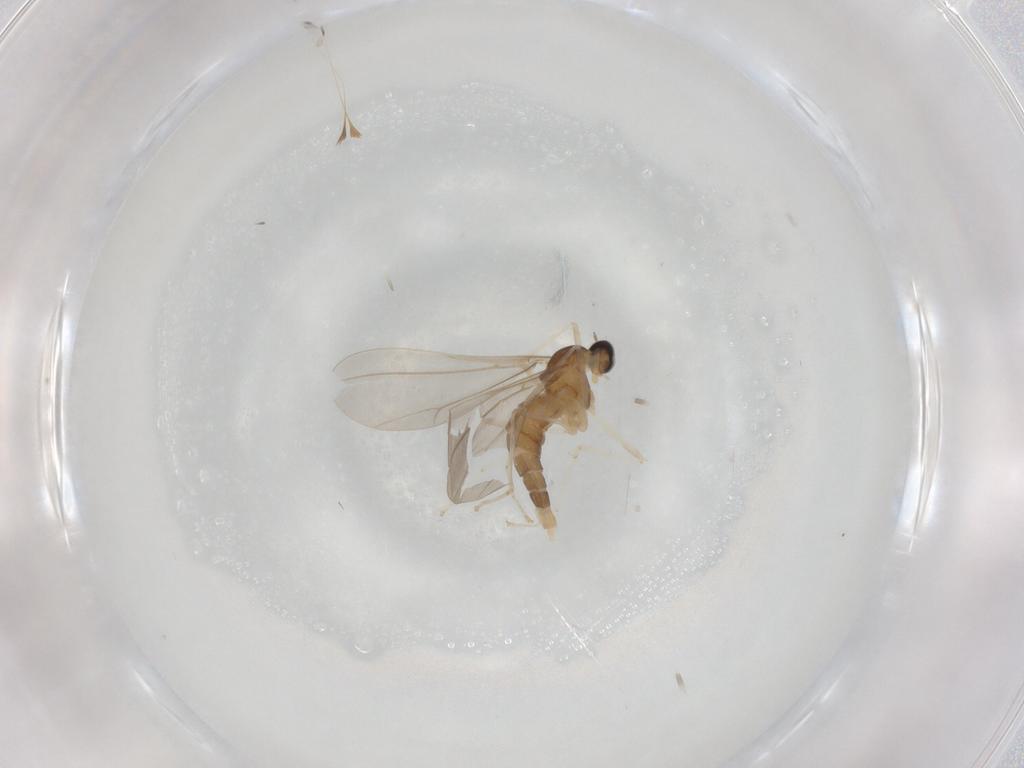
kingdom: Animalia
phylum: Arthropoda
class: Insecta
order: Diptera
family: Cecidomyiidae
